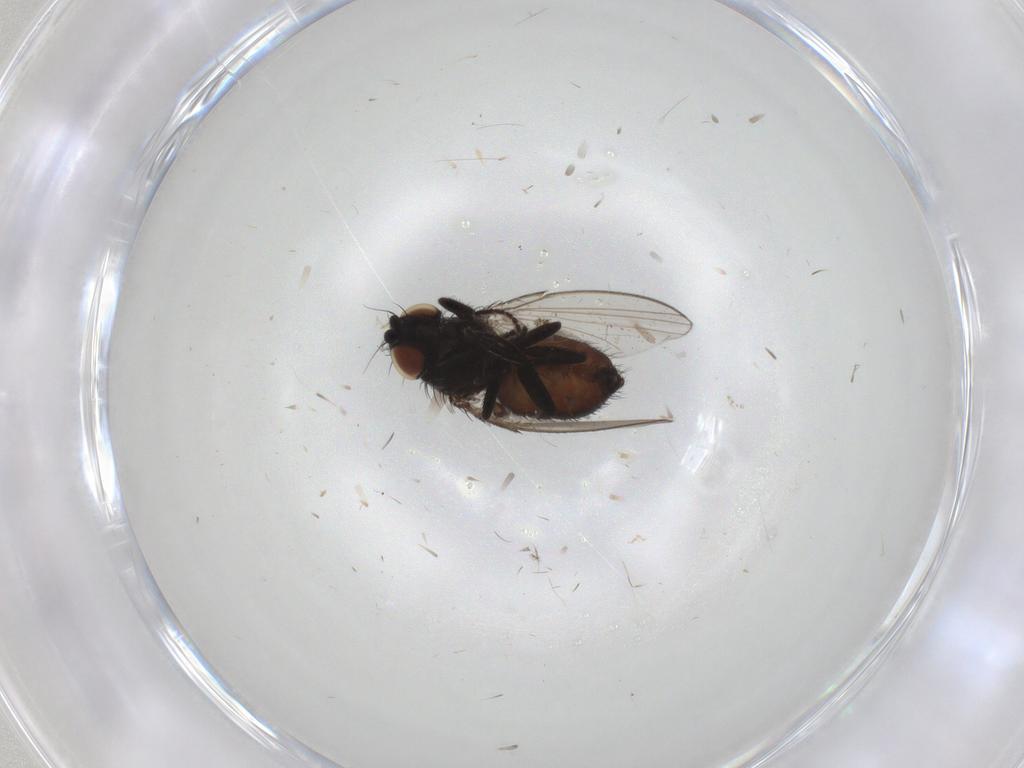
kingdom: Animalia
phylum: Arthropoda
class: Insecta
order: Diptera
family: Milichiidae
